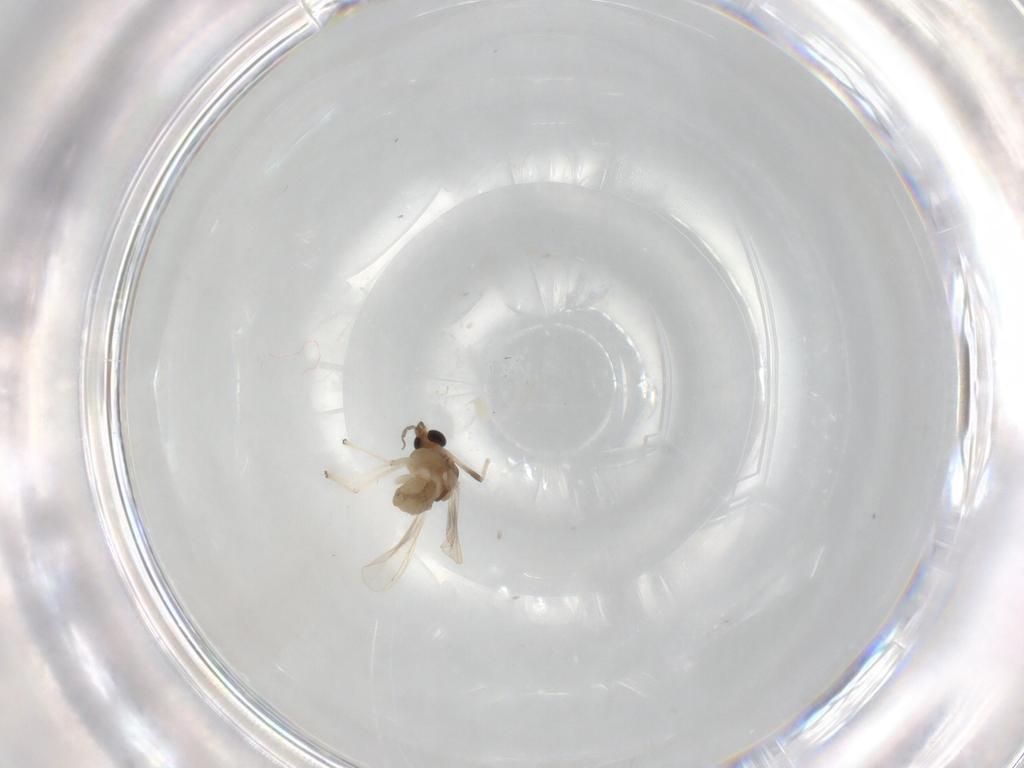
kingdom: Animalia
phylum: Arthropoda
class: Insecta
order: Diptera
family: Chironomidae
